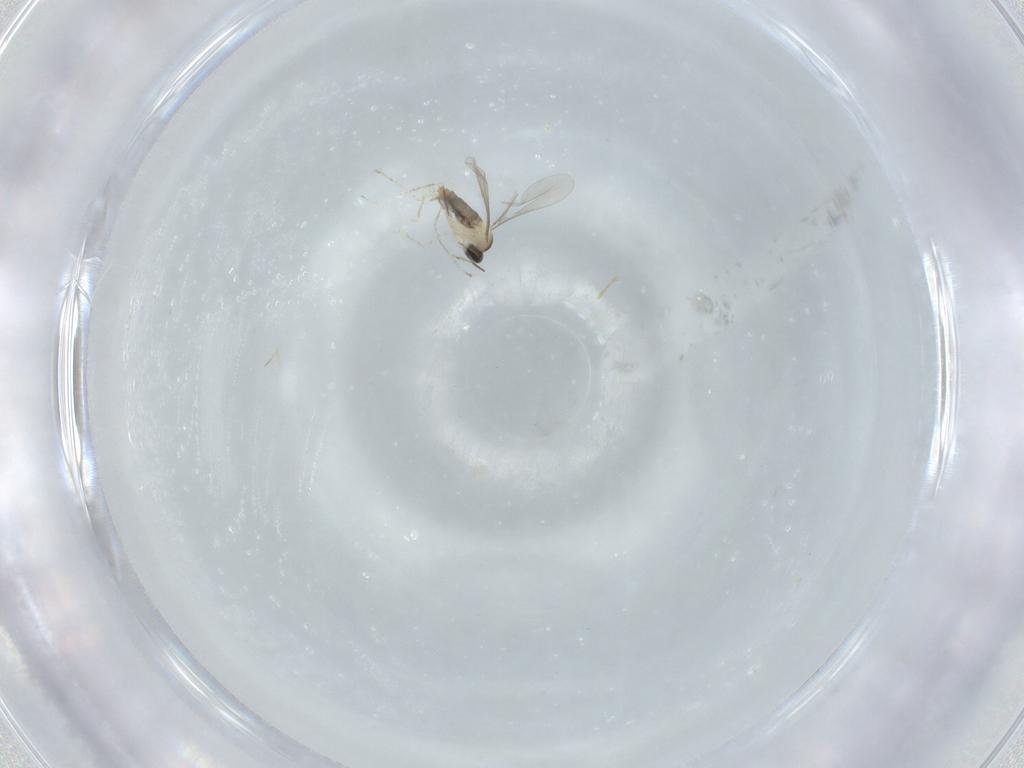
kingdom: Animalia
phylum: Arthropoda
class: Insecta
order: Diptera
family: Cecidomyiidae
